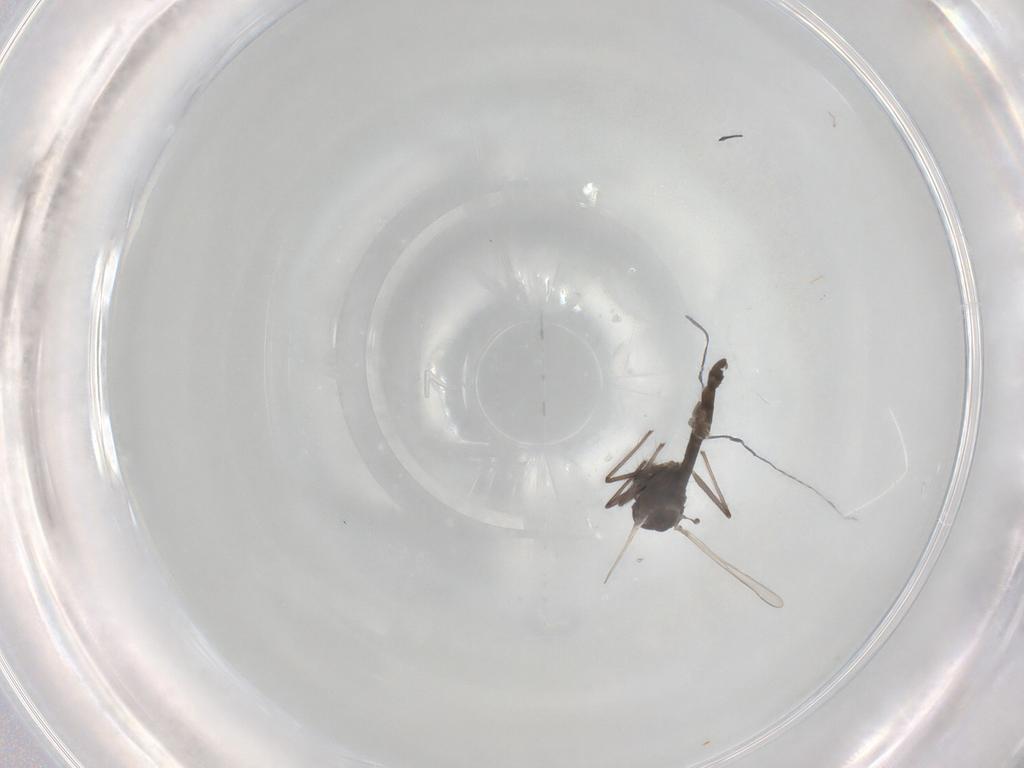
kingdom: Animalia
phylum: Arthropoda
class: Insecta
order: Diptera
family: Chironomidae
